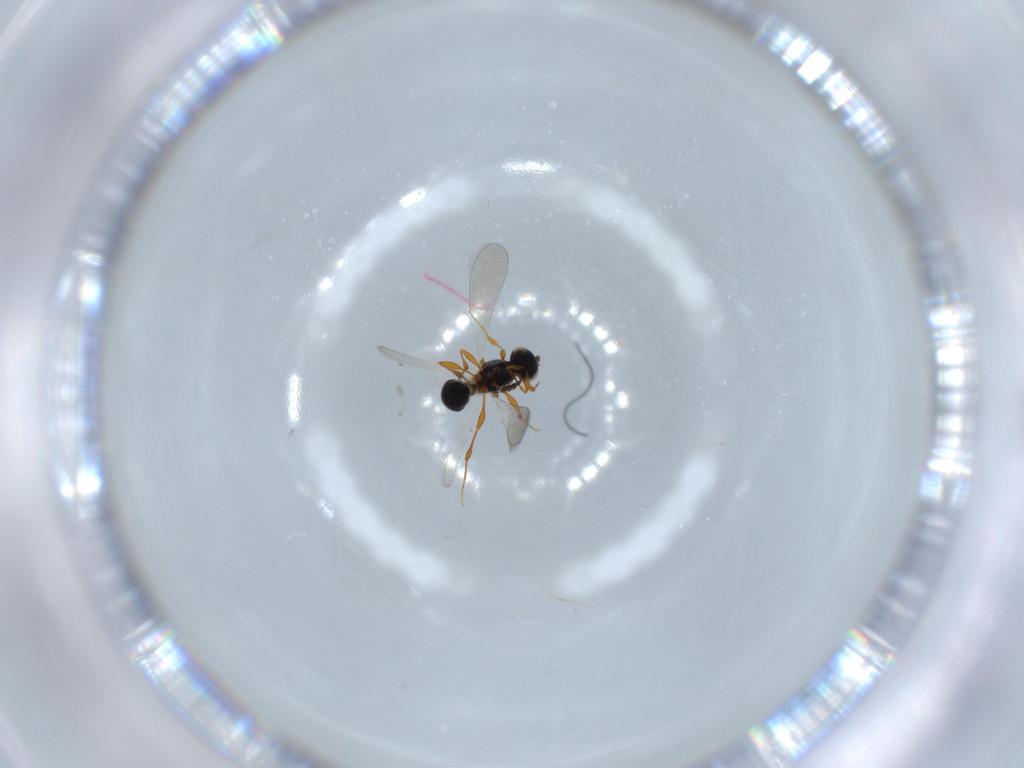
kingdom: Animalia
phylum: Arthropoda
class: Insecta
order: Hymenoptera
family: Platygastridae
